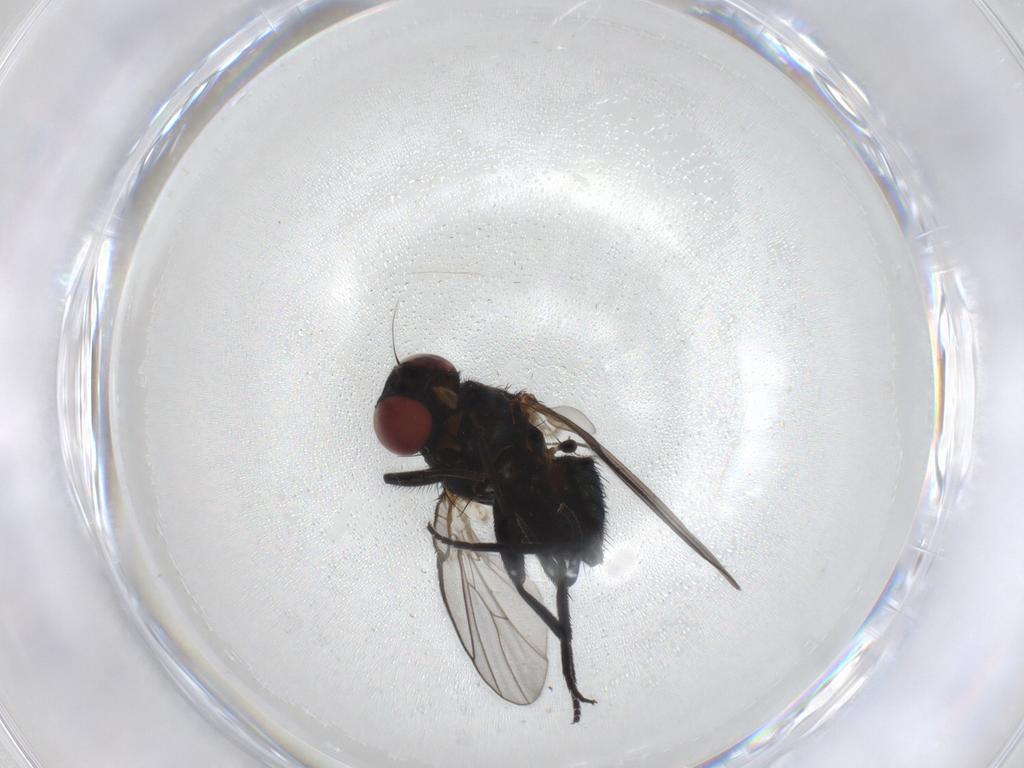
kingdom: Animalia
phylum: Arthropoda
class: Insecta
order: Diptera
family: Agromyzidae
